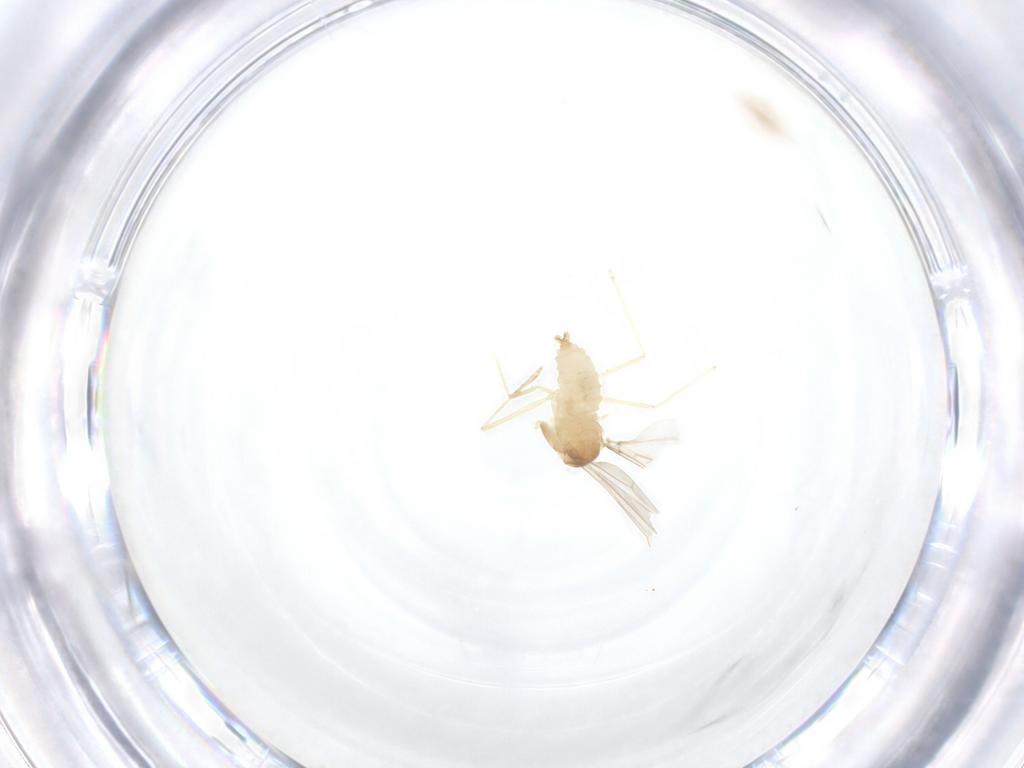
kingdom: Animalia
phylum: Arthropoda
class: Insecta
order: Diptera
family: Cecidomyiidae
